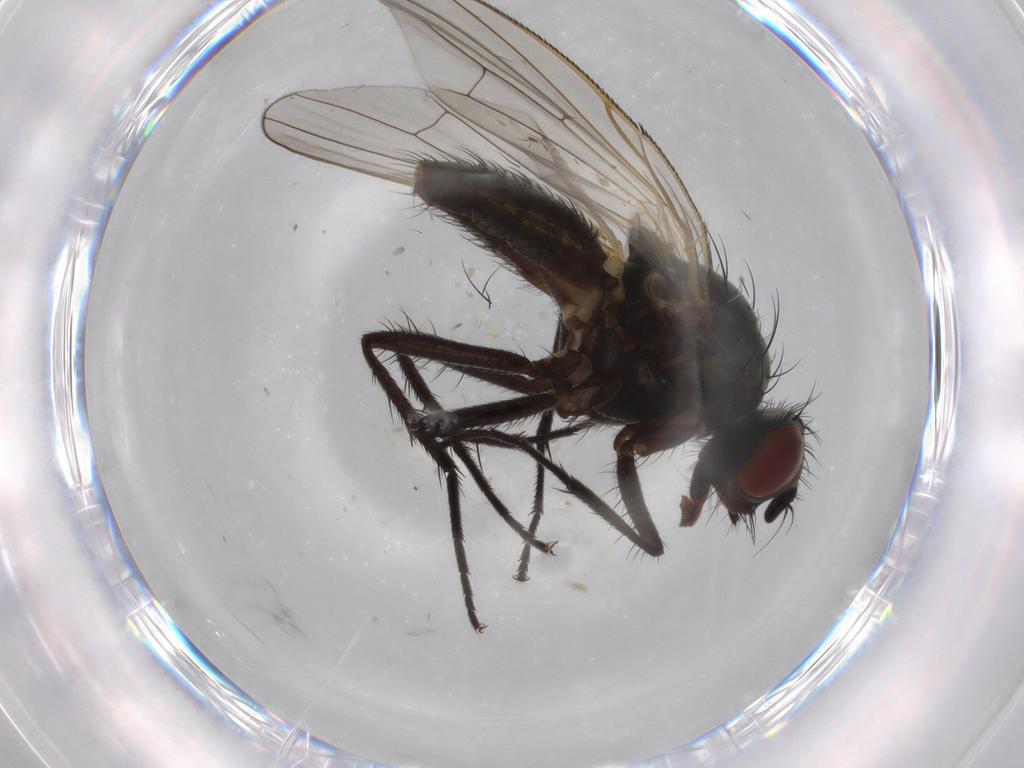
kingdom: Animalia
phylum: Arthropoda
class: Insecta
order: Diptera
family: Anthomyiidae
